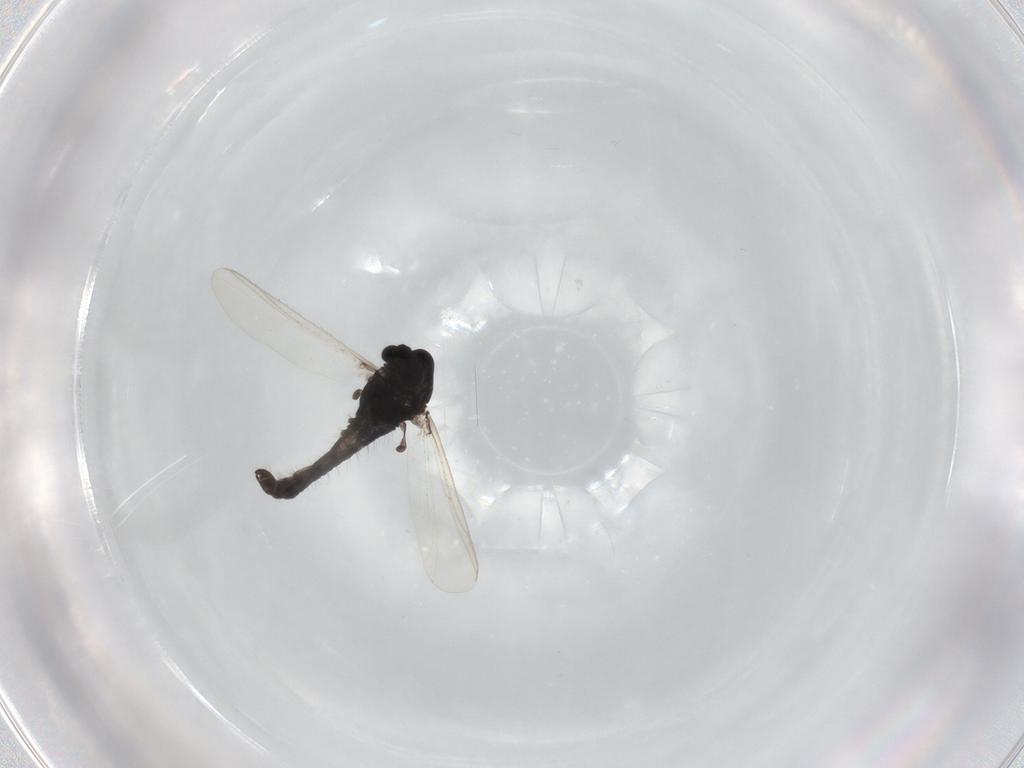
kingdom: Animalia
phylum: Arthropoda
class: Insecta
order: Diptera
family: Chironomidae
